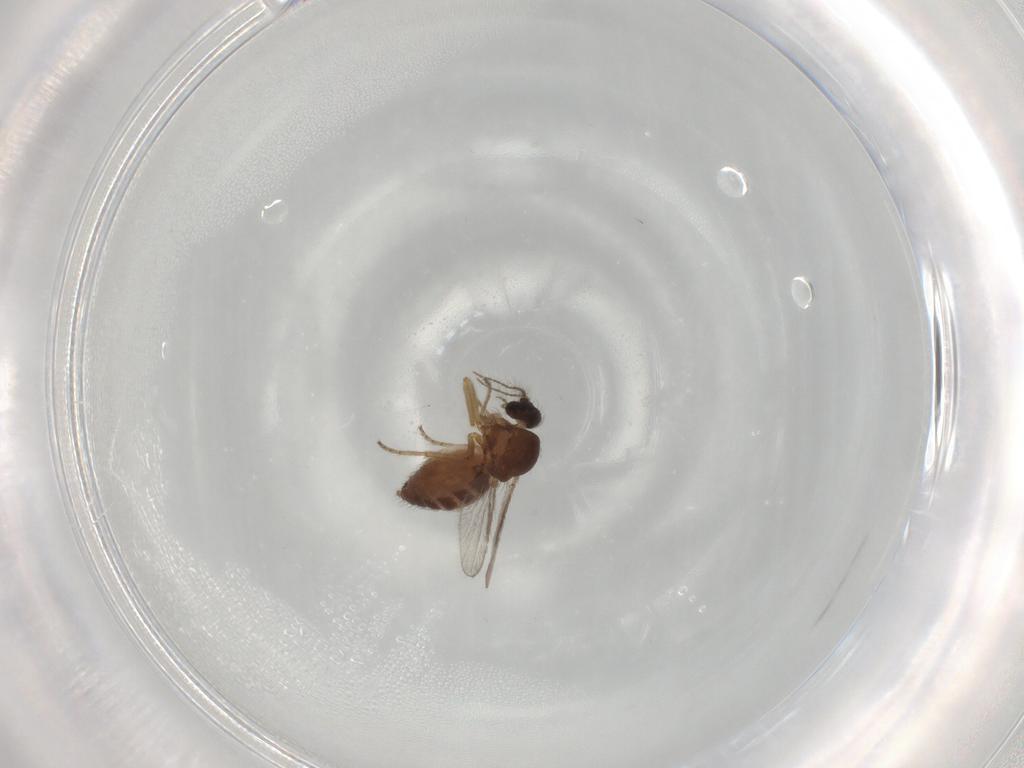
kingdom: Animalia
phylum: Arthropoda
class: Insecta
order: Diptera
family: Ceratopogonidae
